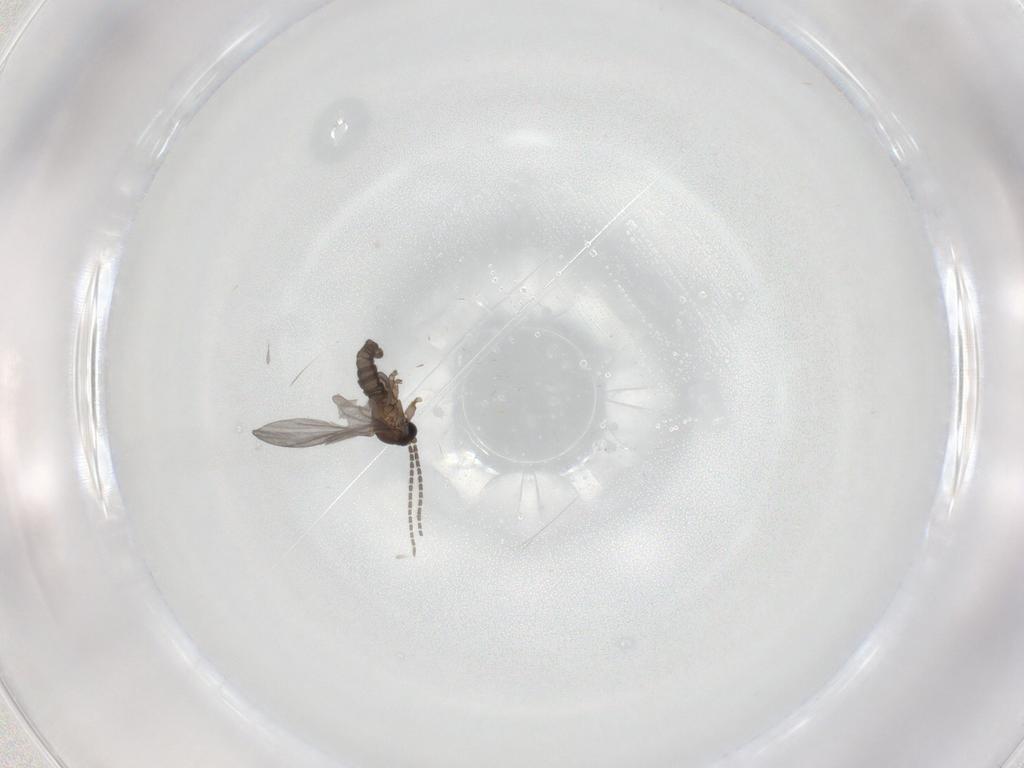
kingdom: Animalia
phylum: Arthropoda
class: Insecta
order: Diptera
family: Sciaridae
